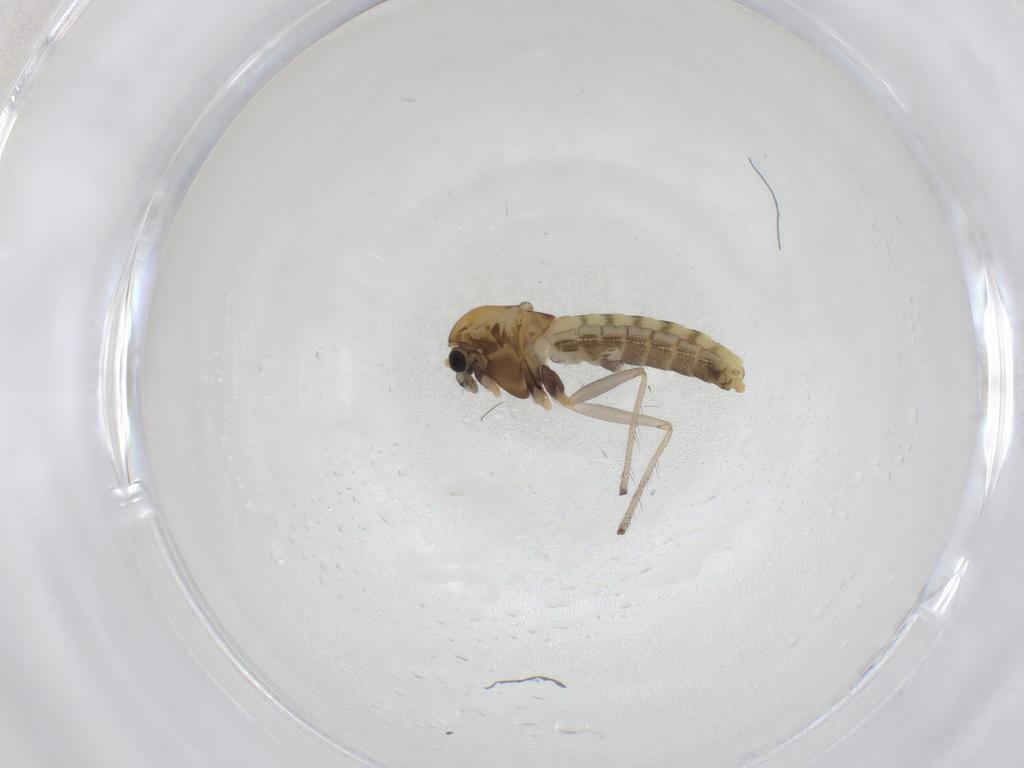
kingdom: Animalia
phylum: Arthropoda
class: Insecta
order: Diptera
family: Chironomidae
